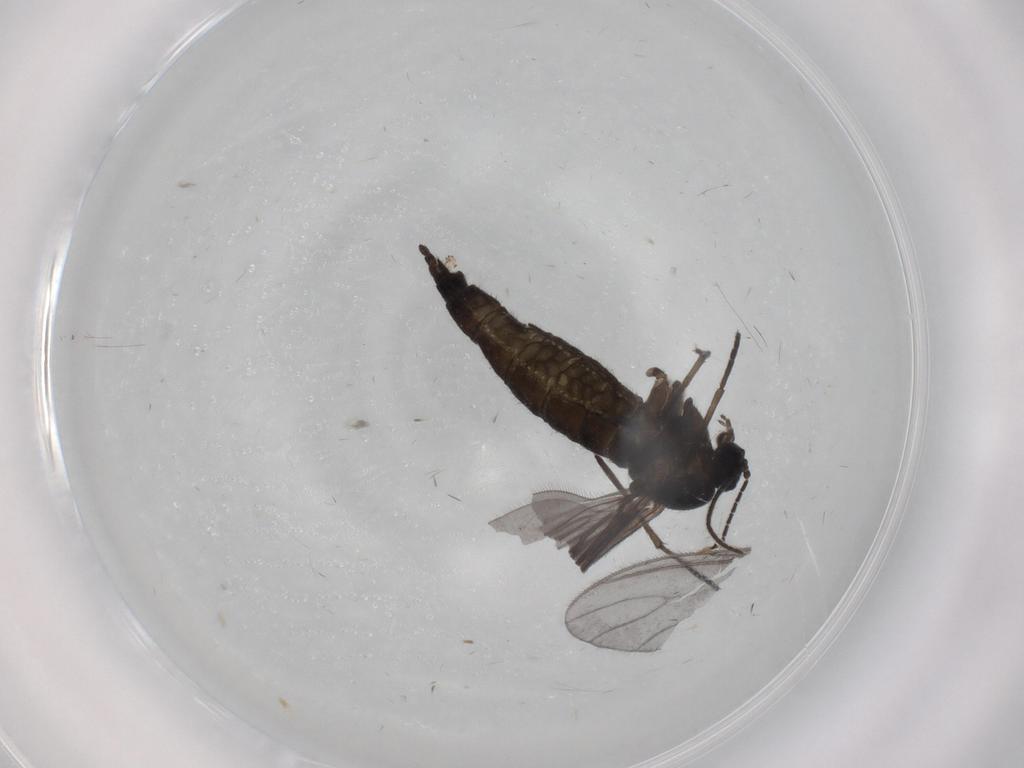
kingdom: Animalia
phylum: Arthropoda
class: Insecta
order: Diptera
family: Sciaridae
